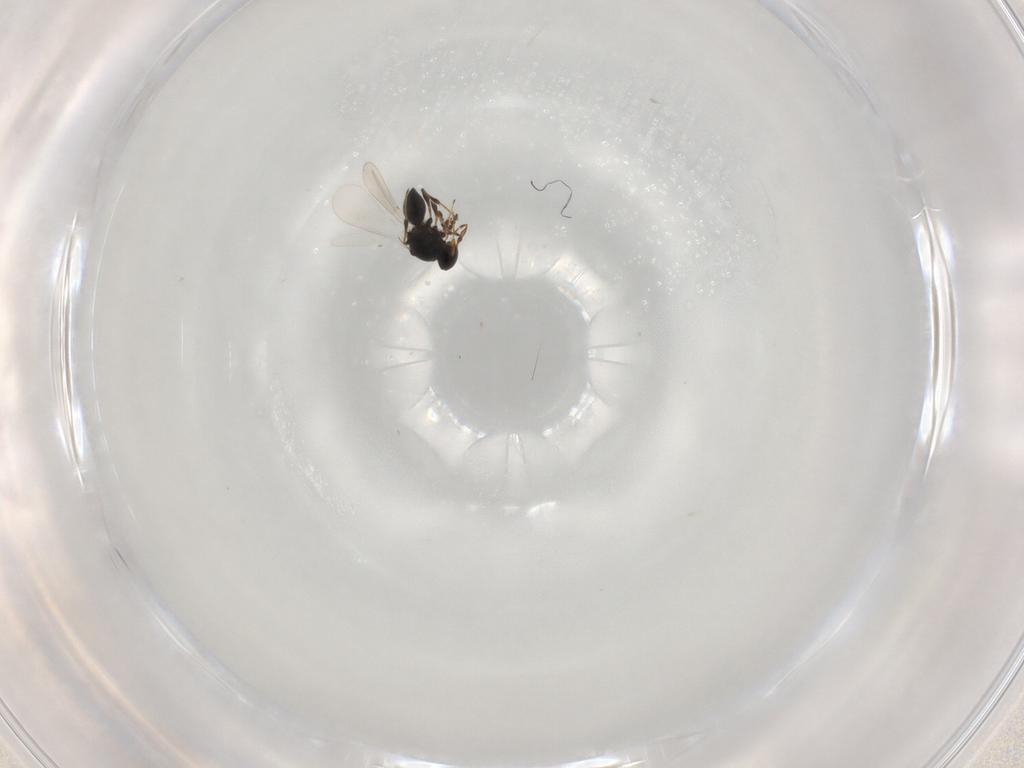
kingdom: Animalia
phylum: Arthropoda
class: Insecta
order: Hymenoptera
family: Platygastridae
